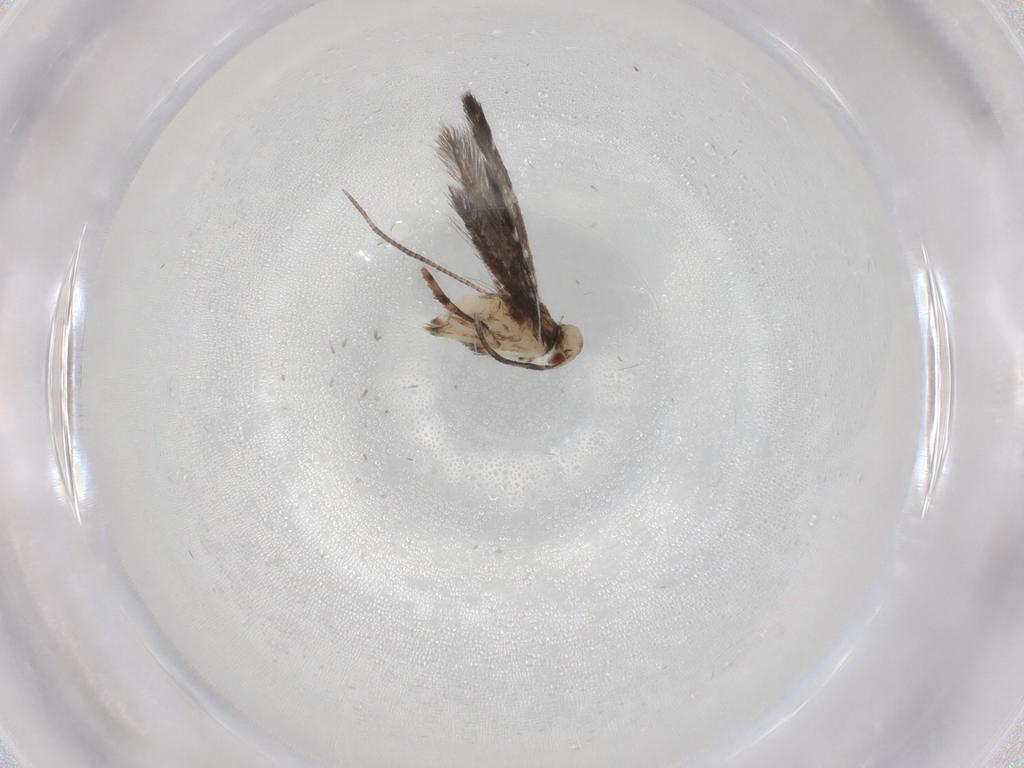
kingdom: Animalia
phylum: Arthropoda
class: Insecta
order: Lepidoptera
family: Gracillariidae
